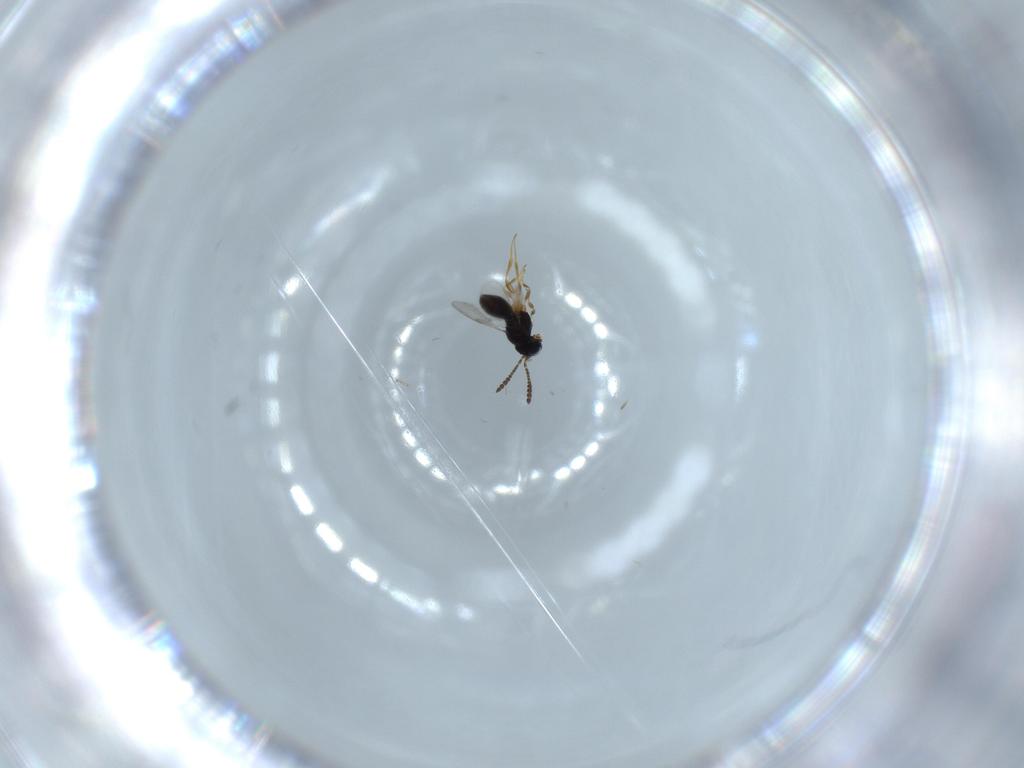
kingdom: Animalia
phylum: Arthropoda
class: Insecta
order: Hymenoptera
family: Scelionidae
